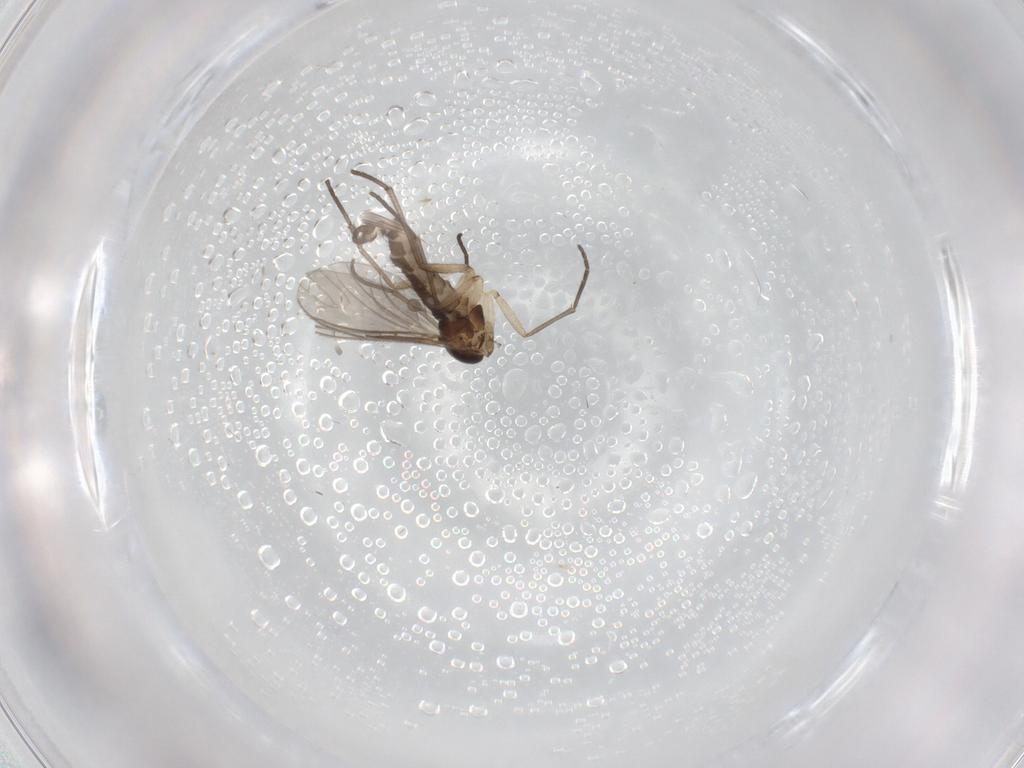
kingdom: Animalia
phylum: Arthropoda
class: Insecta
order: Diptera
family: Sciaridae
